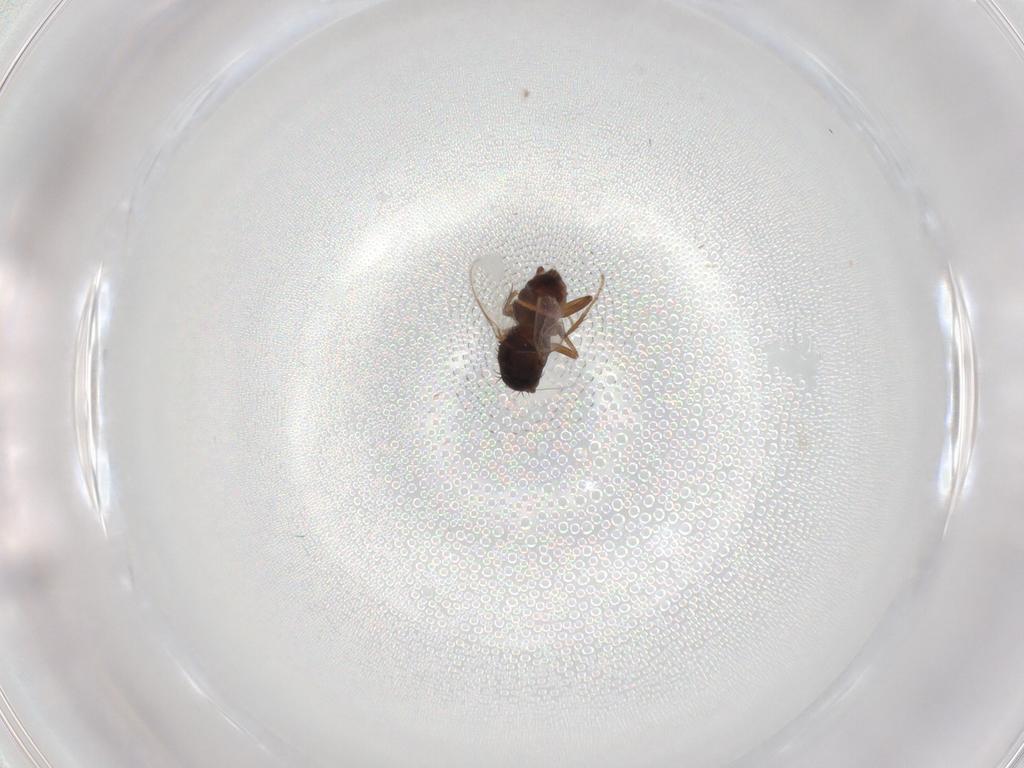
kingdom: Animalia
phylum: Arthropoda
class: Insecta
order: Diptera
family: Sphaeroceridae
